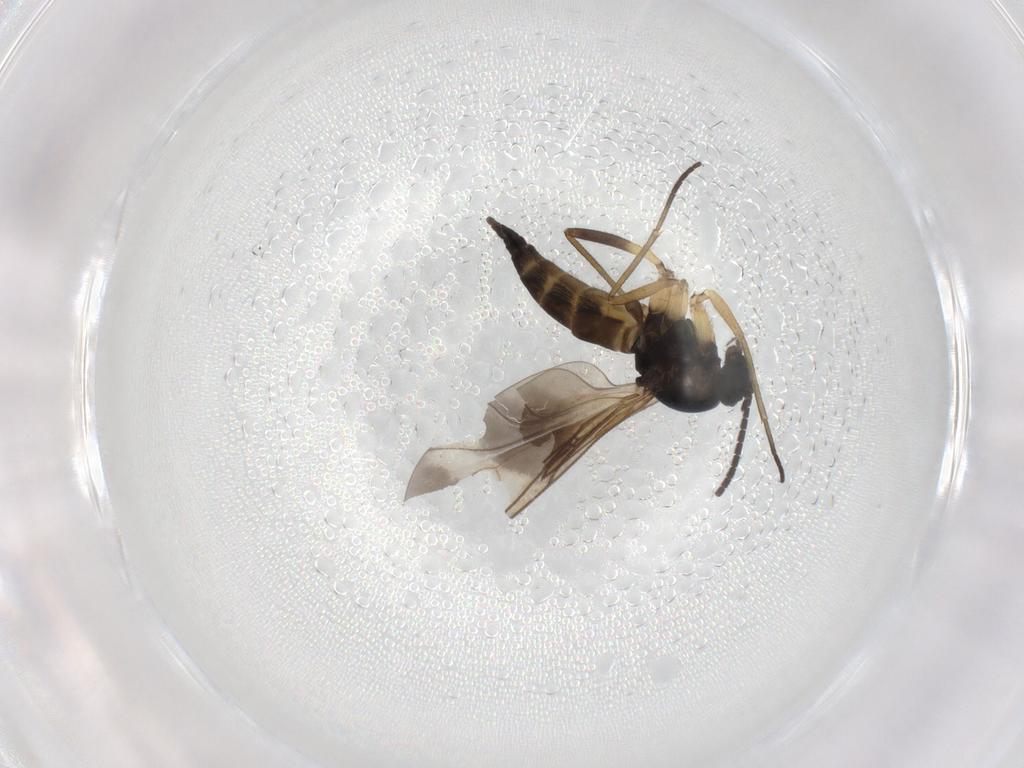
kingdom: Animalia
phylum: Arthropoda
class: Insecta
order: Diptera
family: Sciaridae
